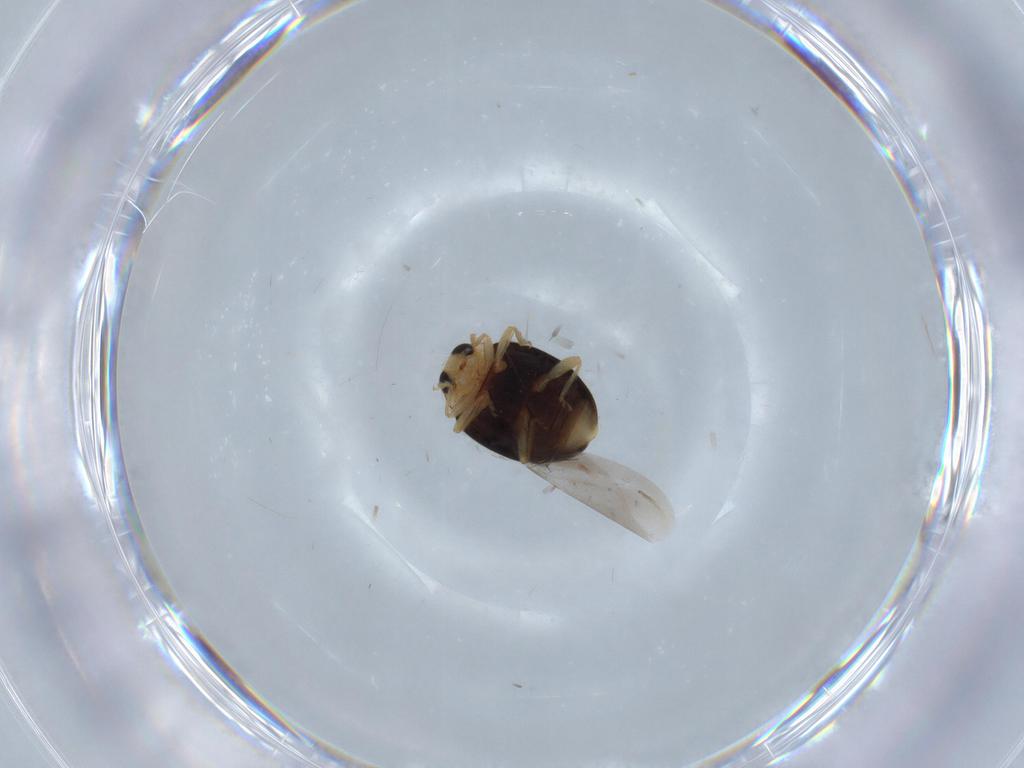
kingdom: Animalia
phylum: Arthropoda
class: Insecta
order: Coleoptera
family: Coccinellidae
